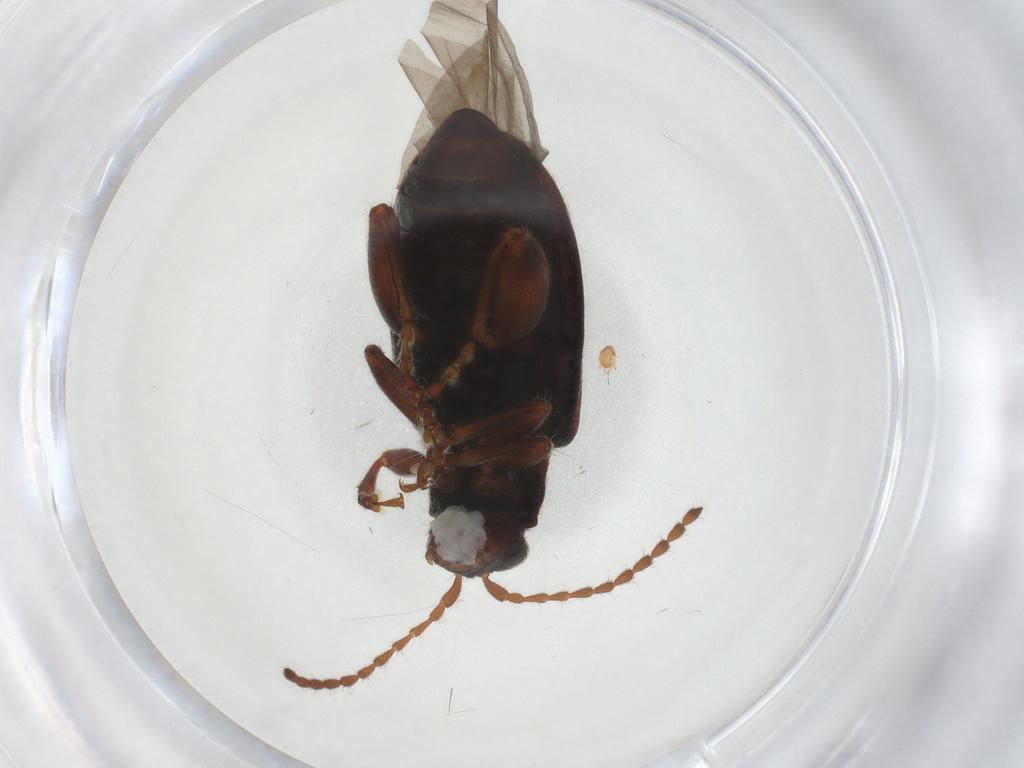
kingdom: Animalia
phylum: Arthropoda
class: Insecta
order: Coleoptera
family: Chrysomelidae
